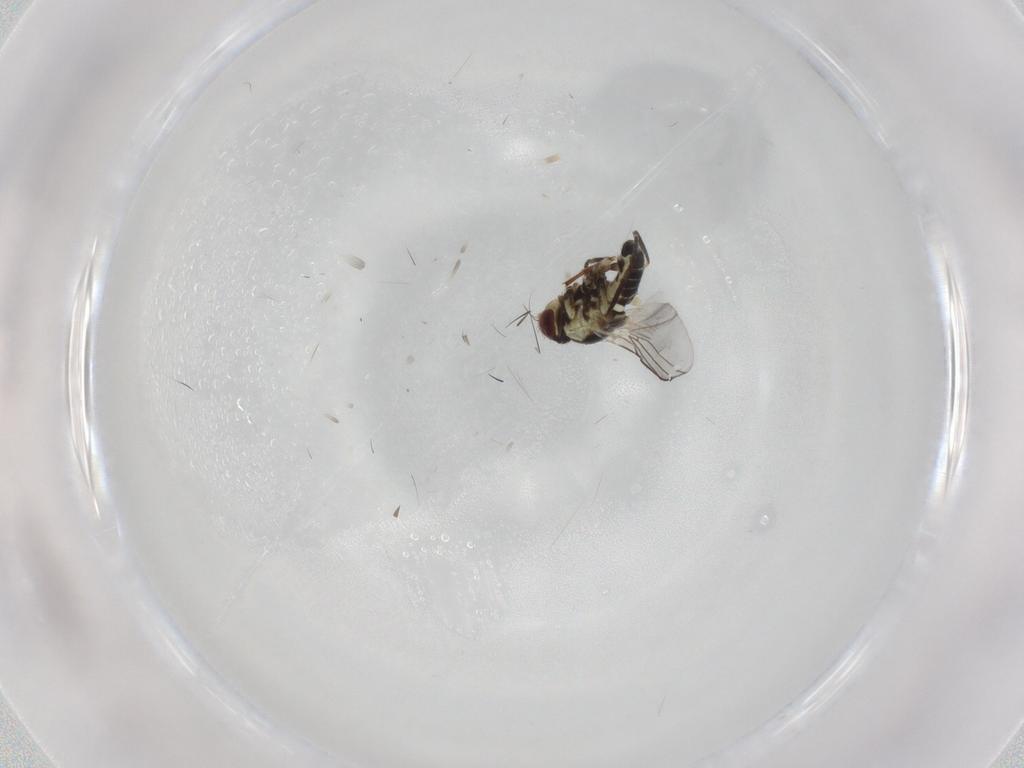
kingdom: Animalia
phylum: Arthropoda
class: Insecta
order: Diptera
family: Agromyzidae
